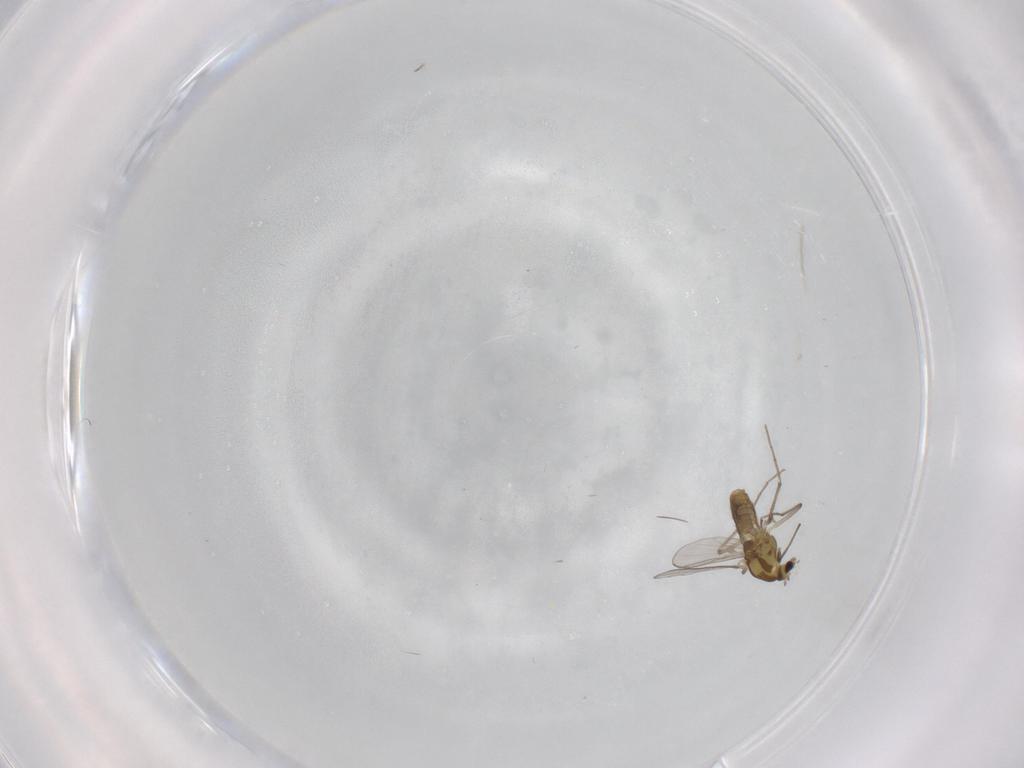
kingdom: Animalia
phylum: Arthropoda
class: Insecta
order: Diptera
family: Chironomidae
